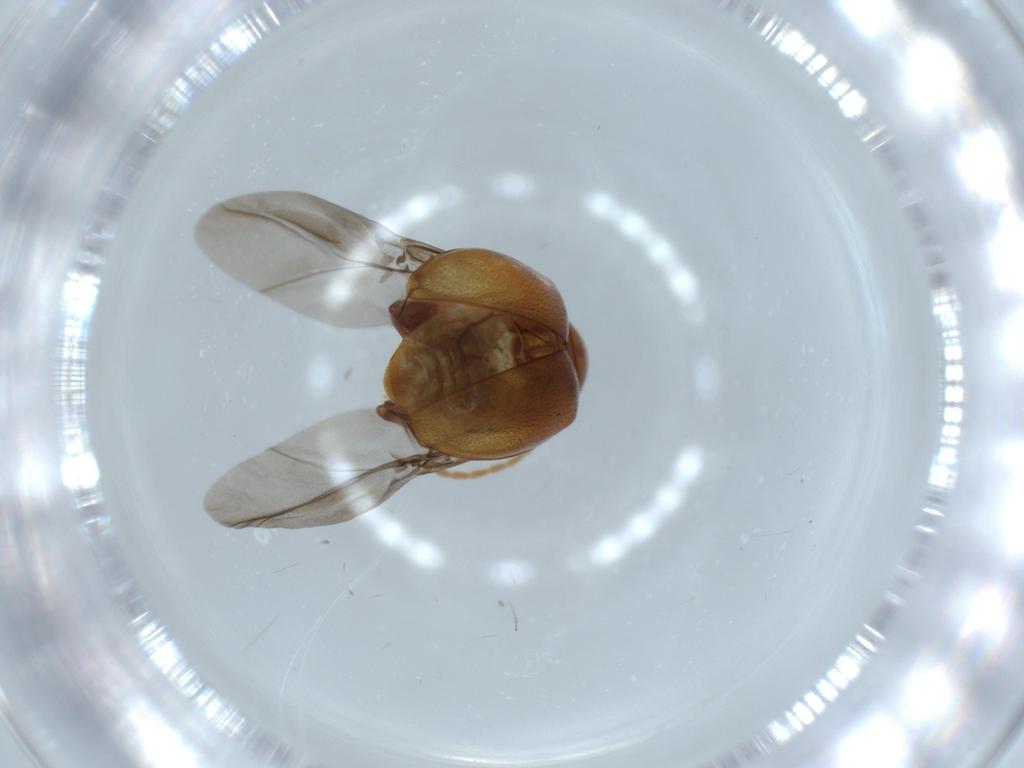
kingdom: Animalia
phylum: Arthropoda
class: Insecta
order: Coleoptera
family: Chrysomelidae
